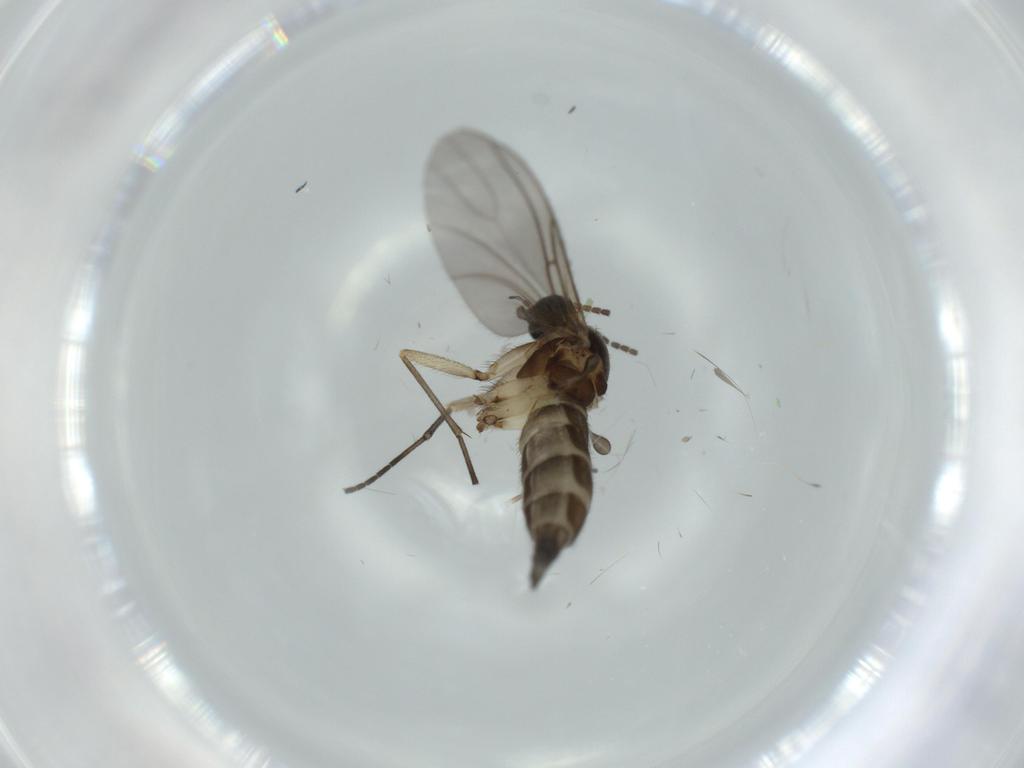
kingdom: Animalia
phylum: Arthropoda
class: Insecta
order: Diptera
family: Sciaridae
